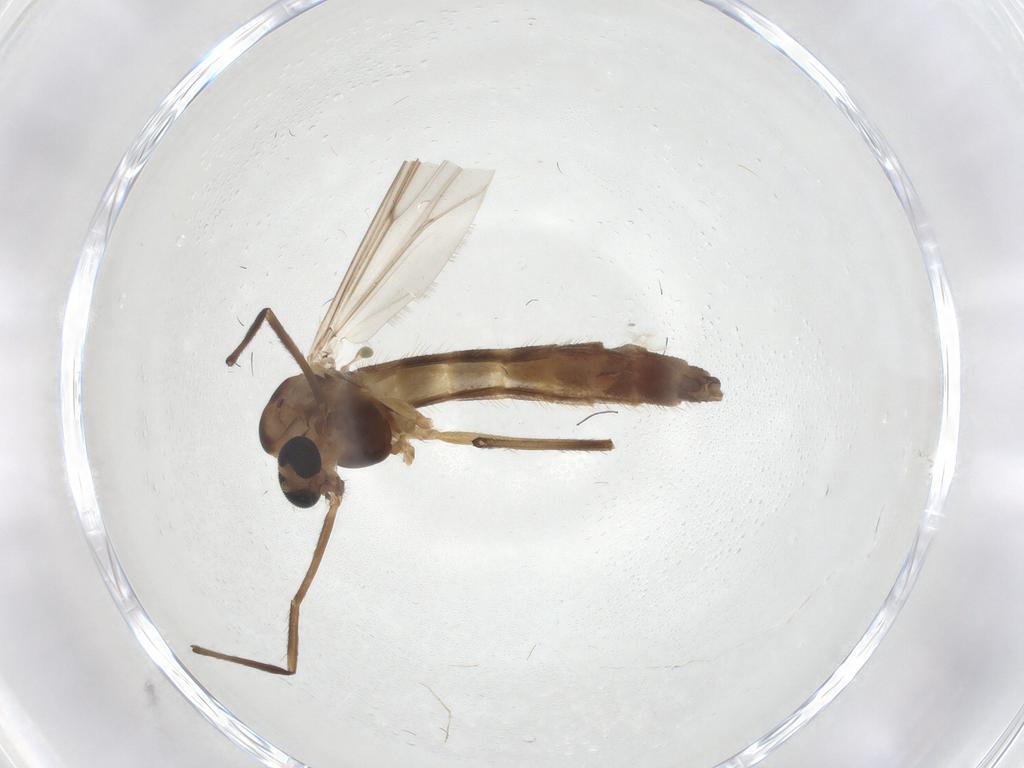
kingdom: Animalia
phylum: Arthropoda
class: Insecta
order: Diptera
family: Chironomidae
